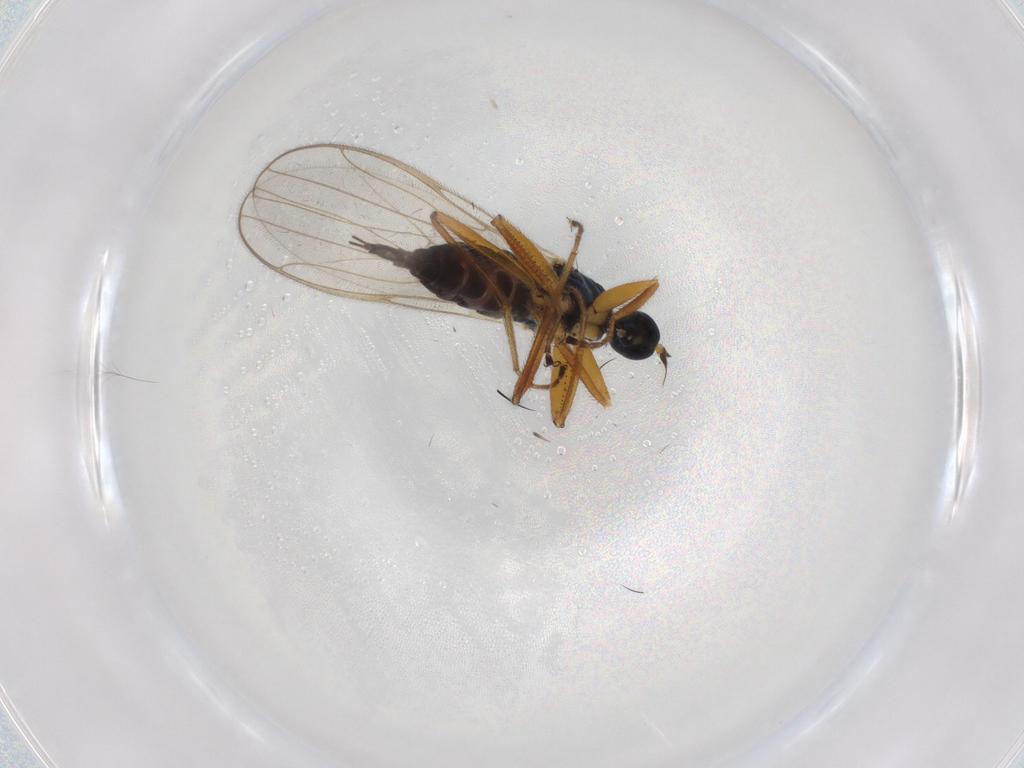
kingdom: Animalia
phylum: Arthropoda
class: Insecta
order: Diptera
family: Hybotidae
